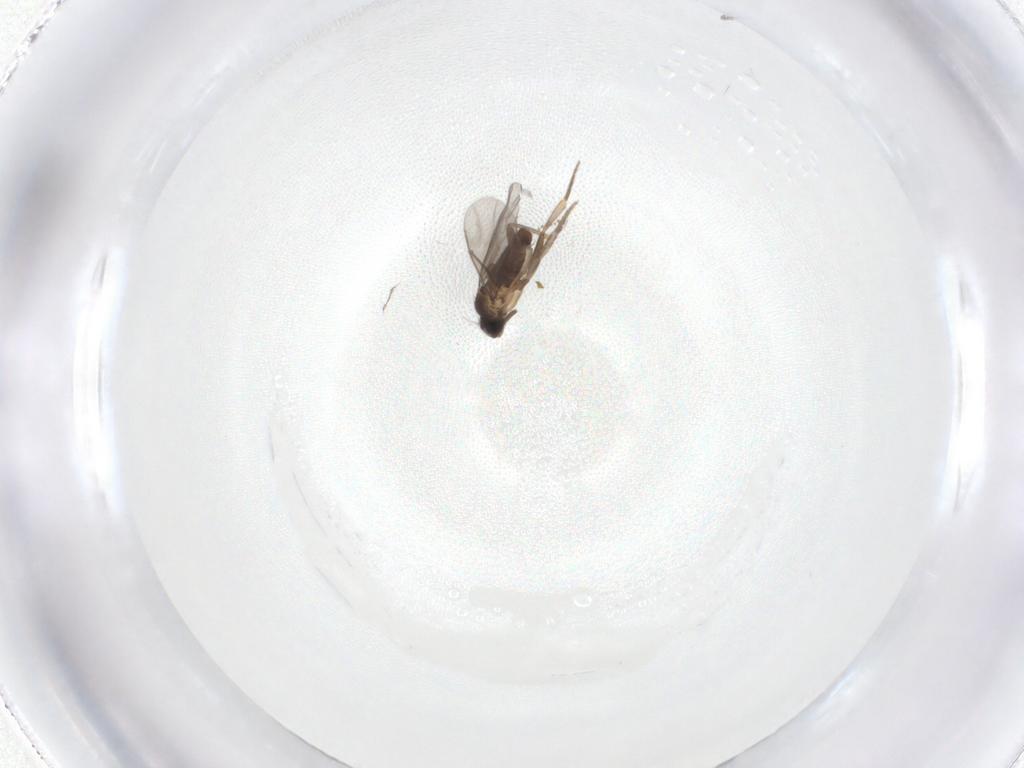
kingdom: Animalia
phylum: Arthropoda
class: Insecta
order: Diptera
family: Cecidomyiidae
